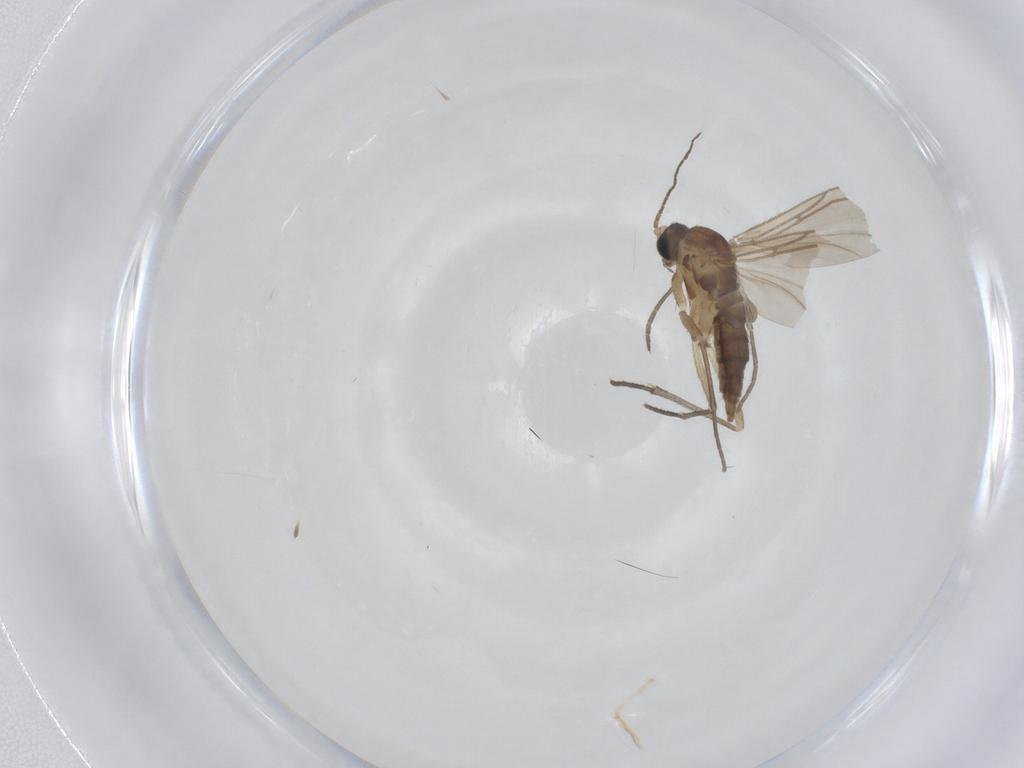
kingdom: Animalia
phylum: Arthropoda
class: Insecta
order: Diptera
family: Sciaridae
